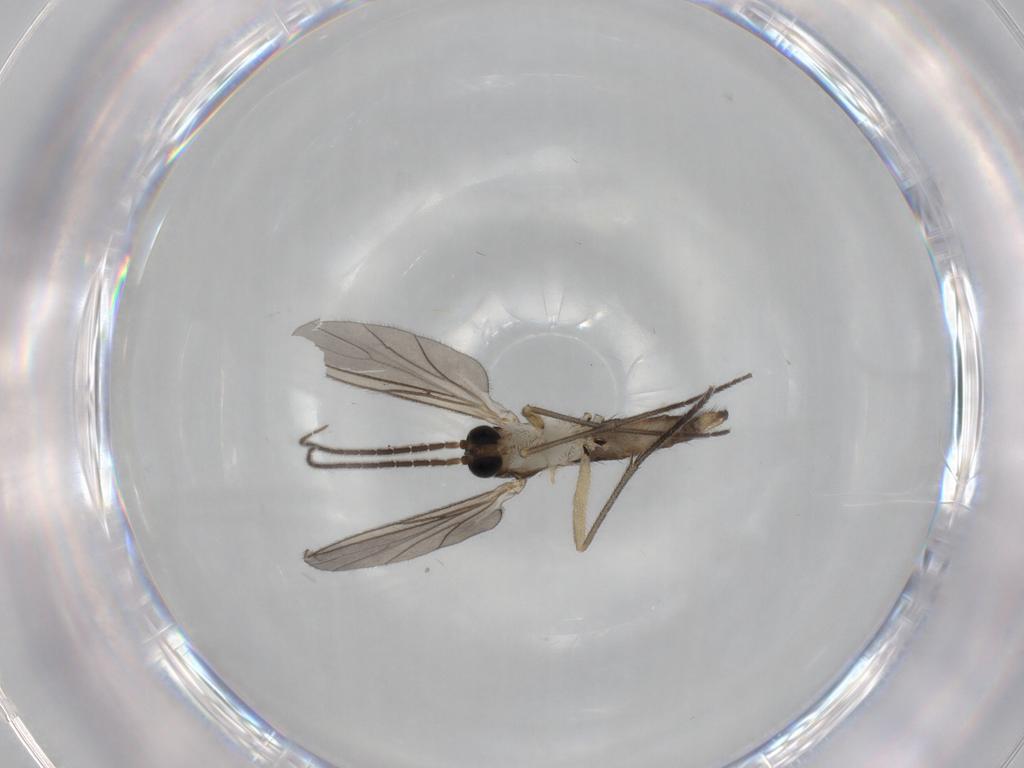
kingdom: Animalia
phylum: Arthropoda
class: Insecta
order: Diptera
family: Dolichopodidae
